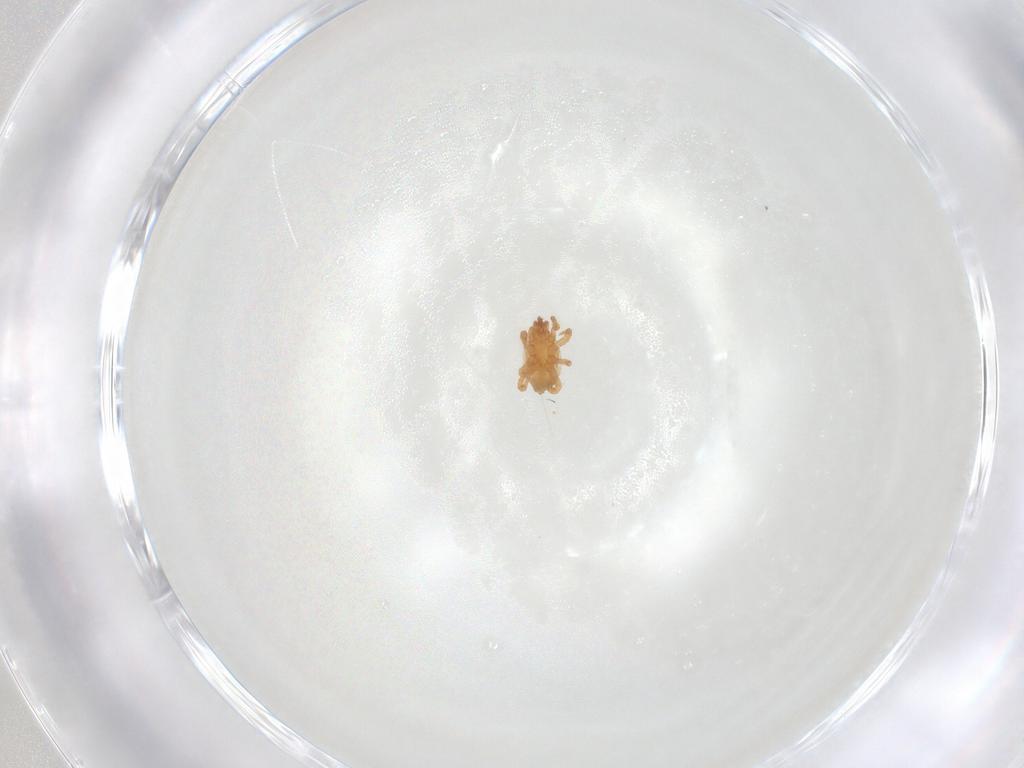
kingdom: Animalia
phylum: Arthropoda
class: Arachnida
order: Mesostigmata
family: Parasitidae
